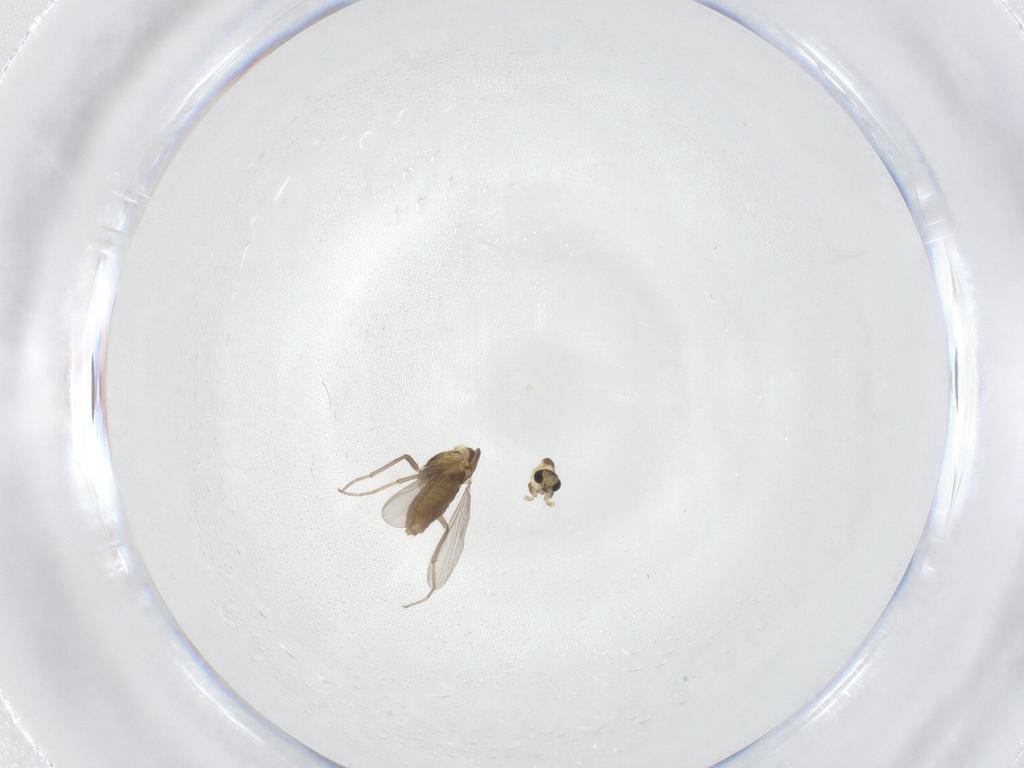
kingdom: Animalia
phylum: Arthropoda
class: Insecta
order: Diptera
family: Chironomidae
